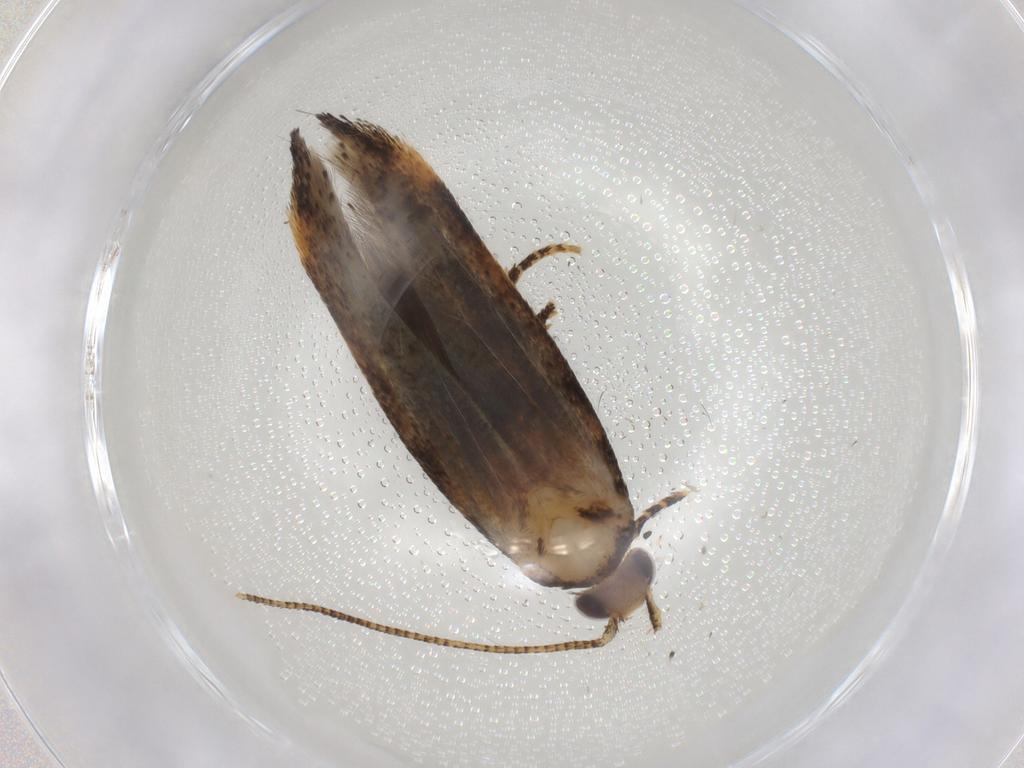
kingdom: Animalia
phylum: Arthropoda
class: Insecta
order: Lepidoptera
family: Gelechiidae
